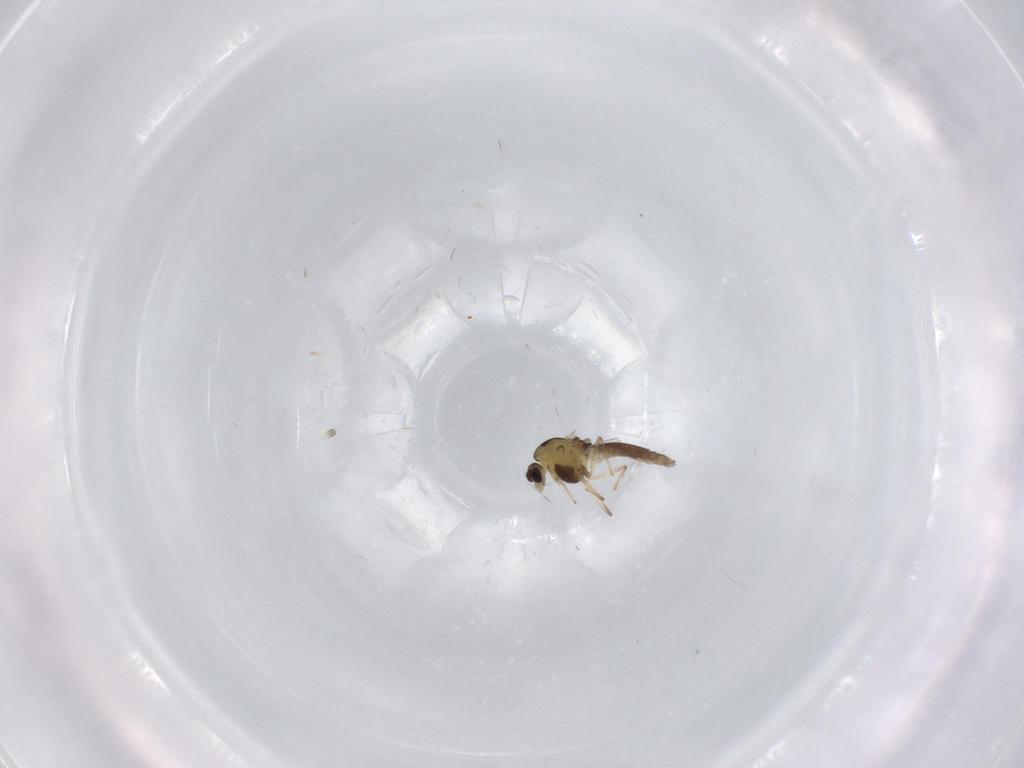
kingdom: Animalia
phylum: Arthropoda
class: Insecta
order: Diptera
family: Chironomidae
